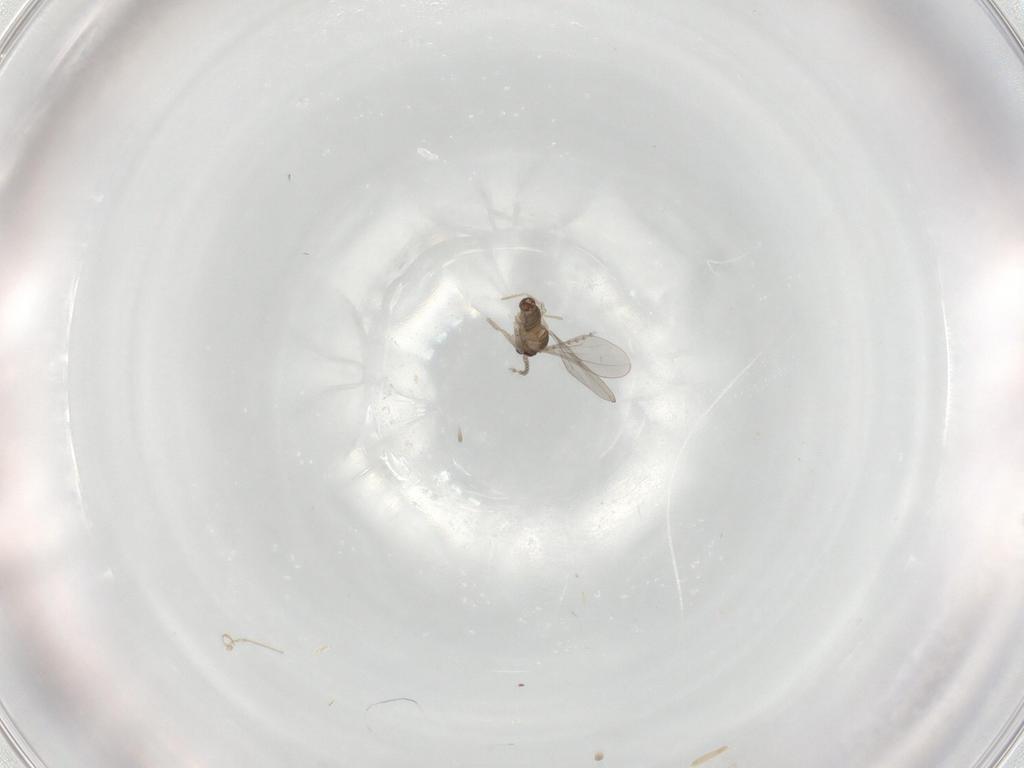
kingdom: Animalia
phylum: Arthropoda
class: Insecta
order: Diptera
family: Cecidomyiidae
